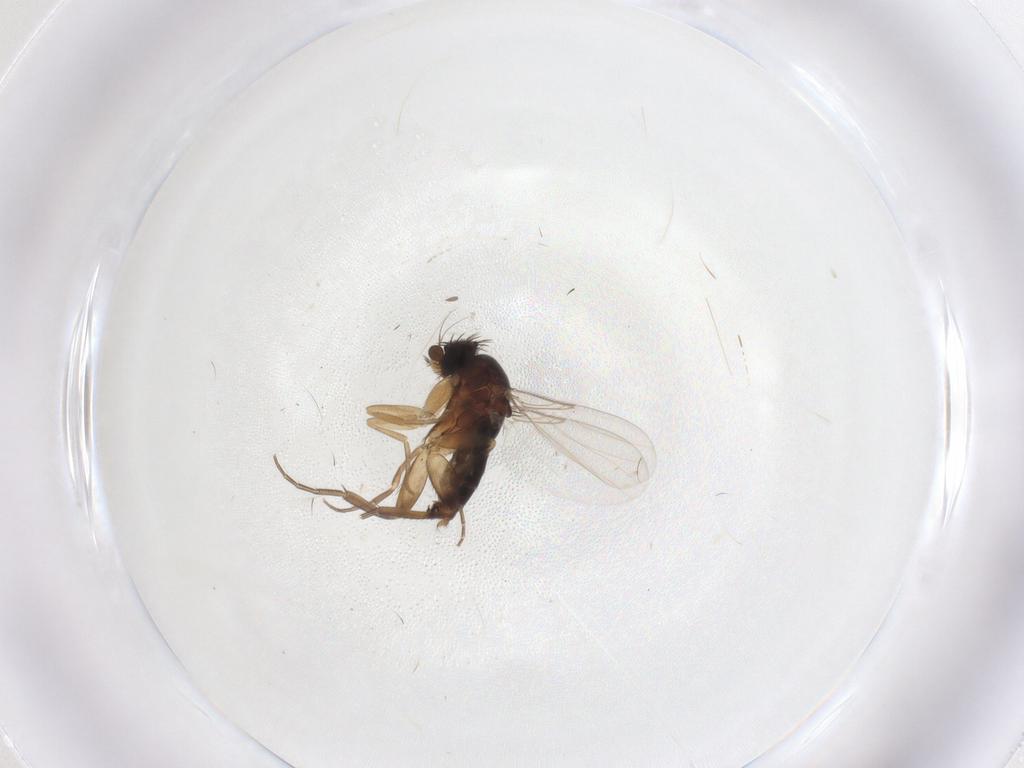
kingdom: Animalia
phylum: Arthropoda
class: Insecta
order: Diptera
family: Phoridae
